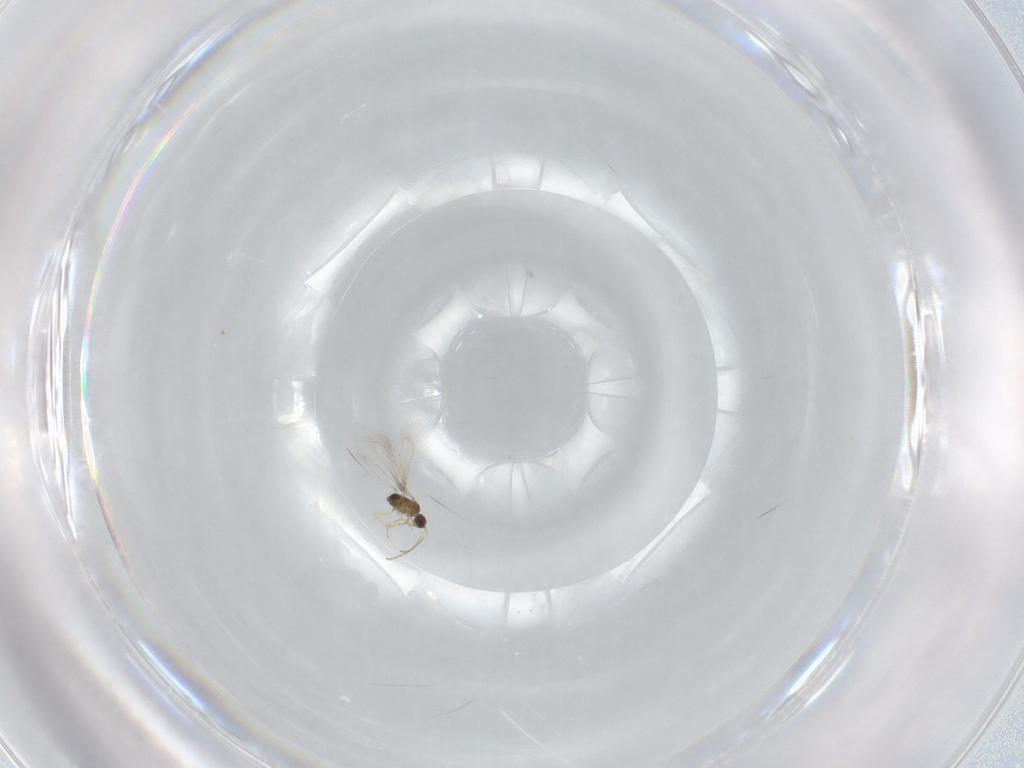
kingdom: Animalia
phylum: Arthropoda
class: Insecta
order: Hymenoptera
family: Mymaridae
